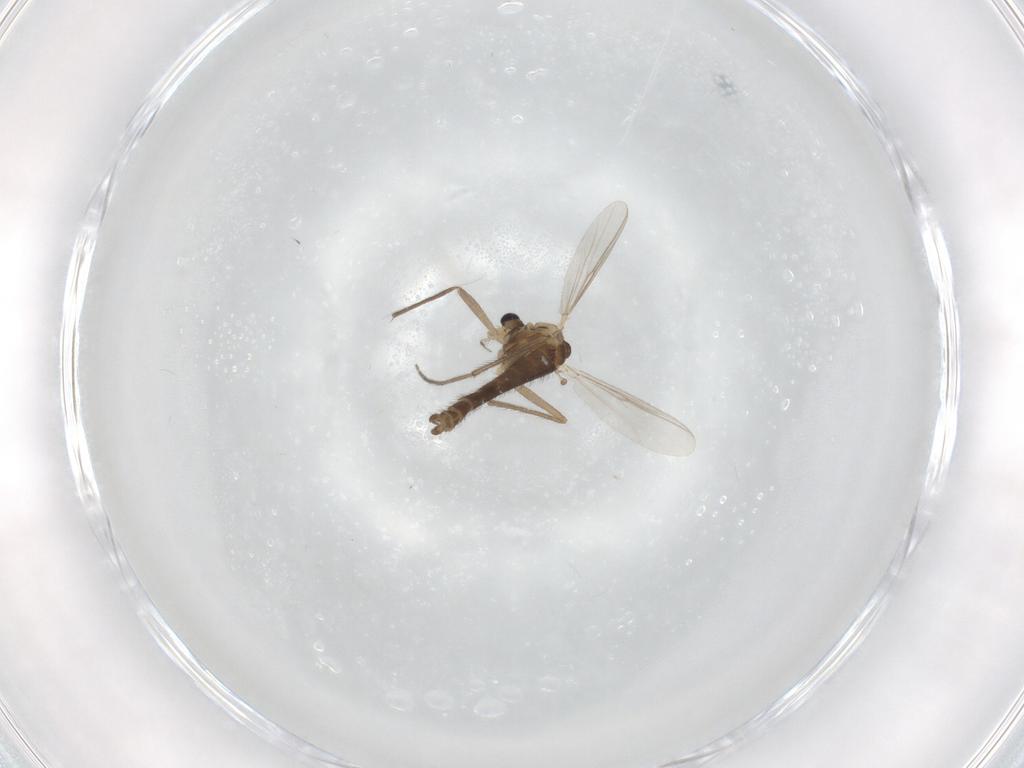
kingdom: Animalia
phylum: Arthropoda
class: Insecta
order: Diptera
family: Chironomidae
